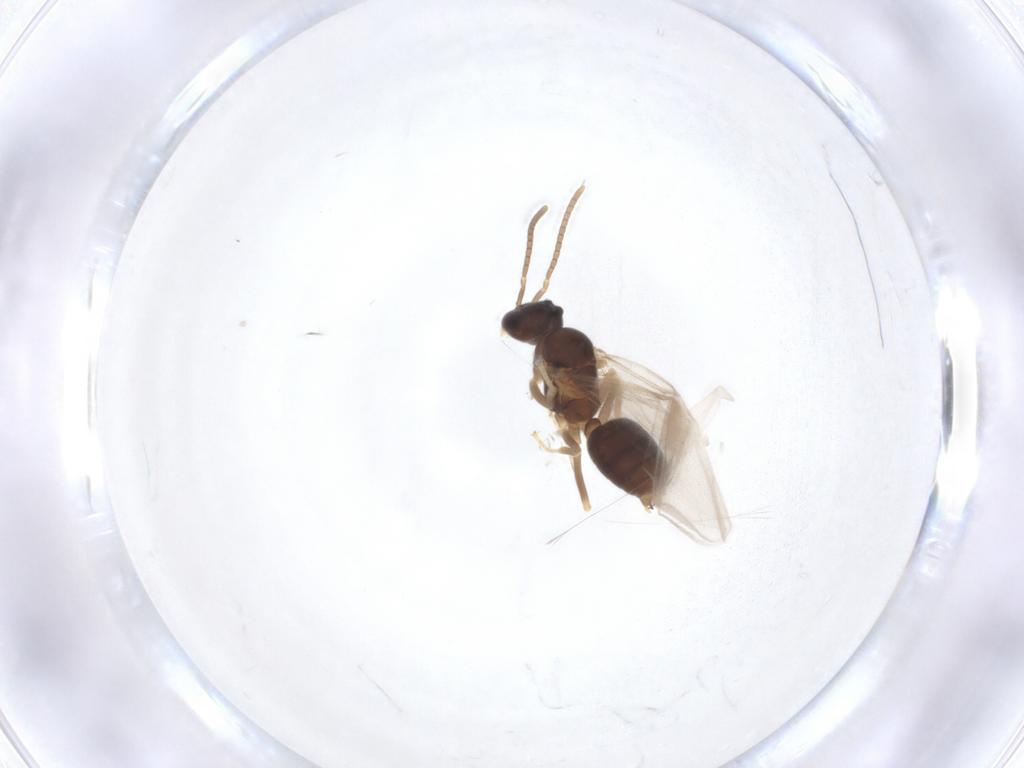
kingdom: Animalia
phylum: Arthropoda
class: Insecta
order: Hymenoptera
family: Formicidae
